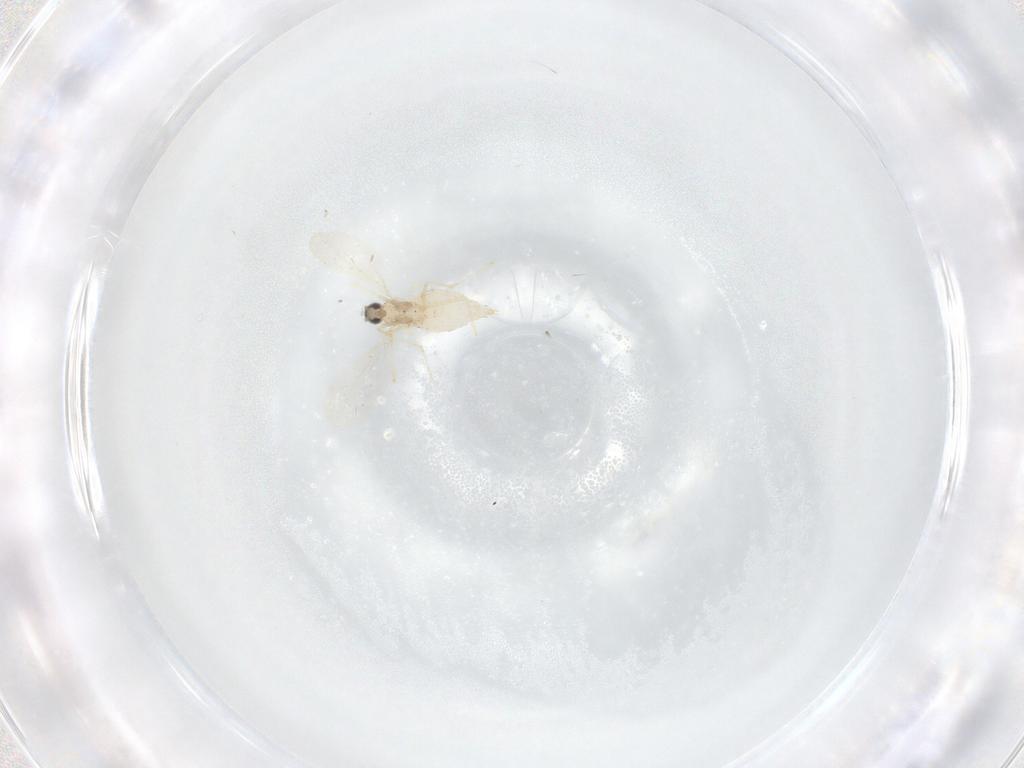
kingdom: Animalia
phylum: Arthropoda
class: Insecta
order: Diptera
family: Cecidomyiidae
